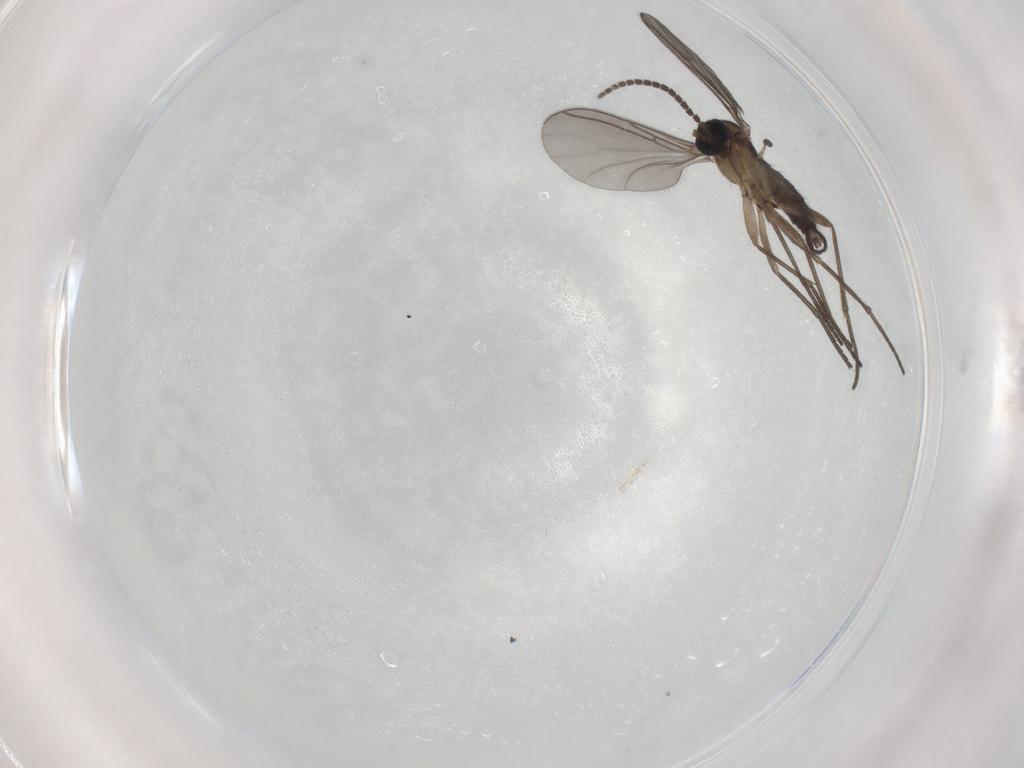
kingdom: Animalia
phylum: Arthropoda
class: Insecta
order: Diptera
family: Sciaridae
